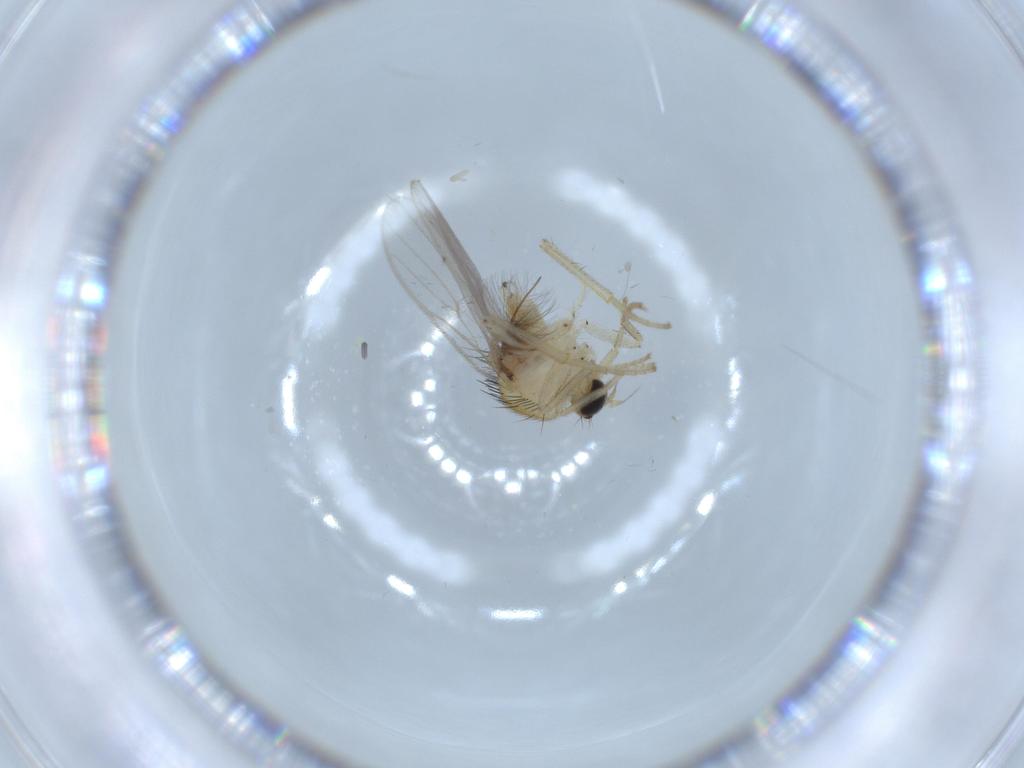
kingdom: Animalia
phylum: Arthropoda
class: Insecta
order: Diptera
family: Hybotidae
